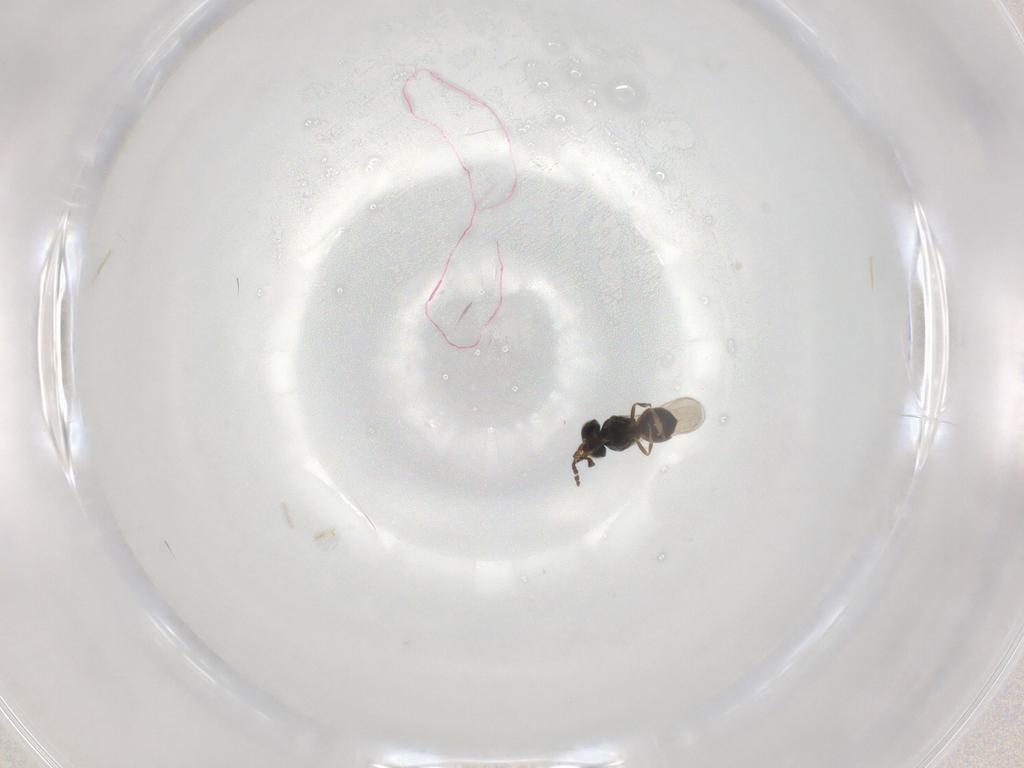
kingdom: Animalia
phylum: Arthropoda
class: Insecta
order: Hymenoptera
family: Scelionidae
